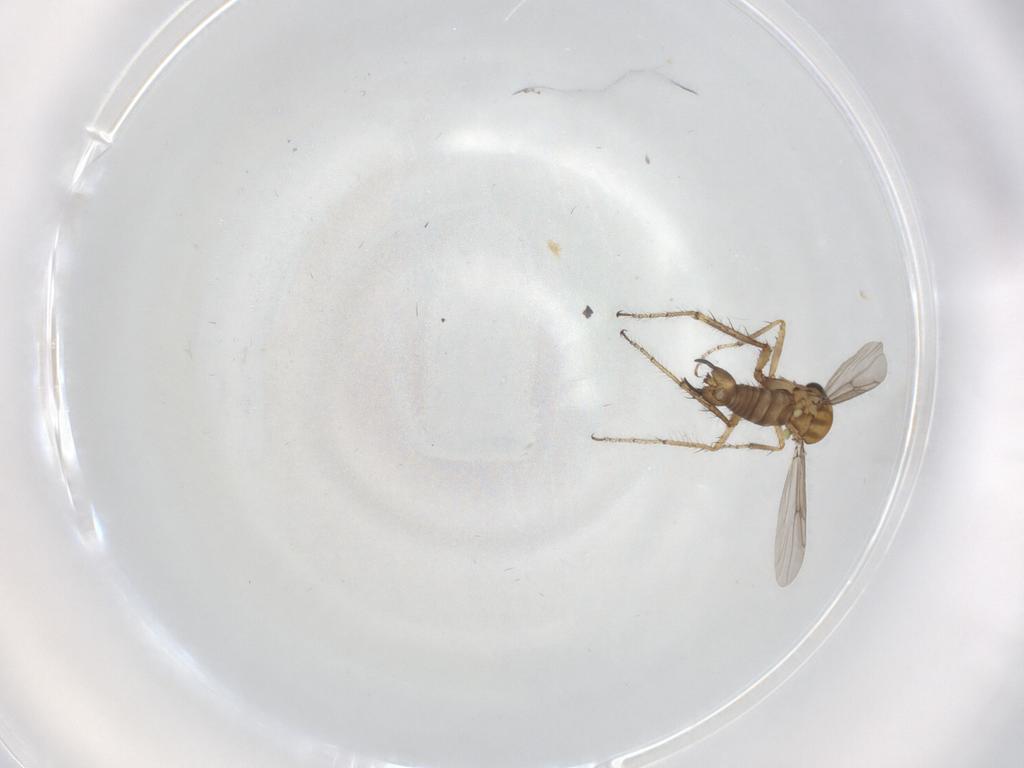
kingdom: Animalia
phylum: Arthropoda
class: Insecta
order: Diptera
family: Ceratopogonidae
